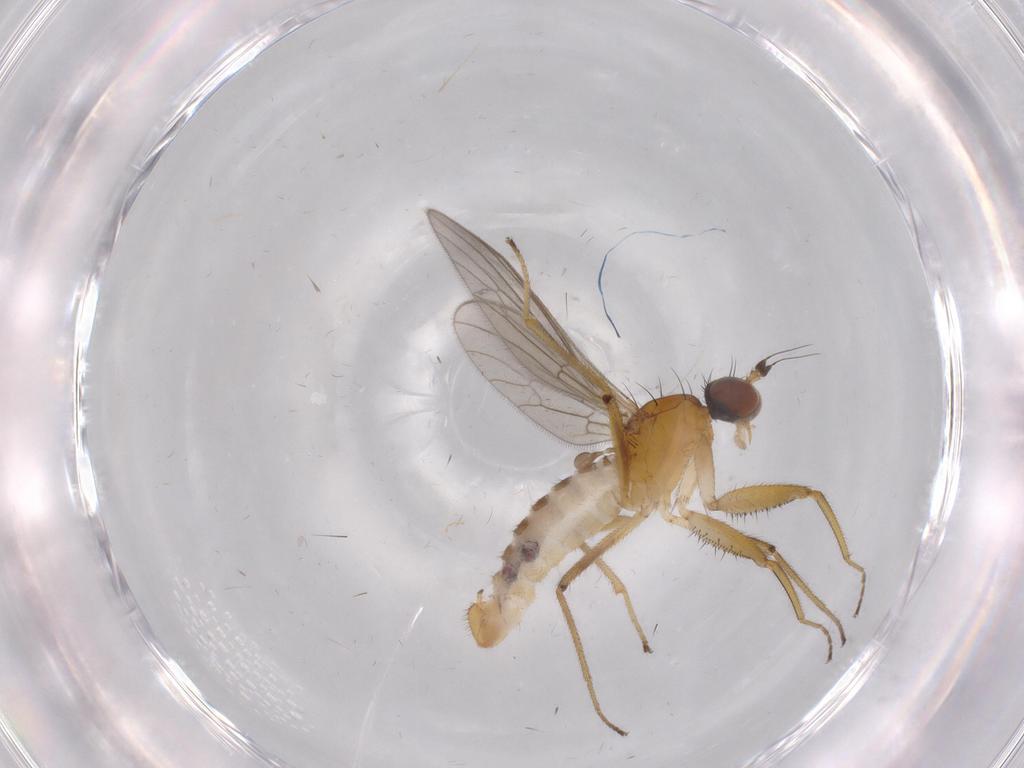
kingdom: Animalia
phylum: Arthropoda
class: Insecta
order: Diptera
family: Empididae
